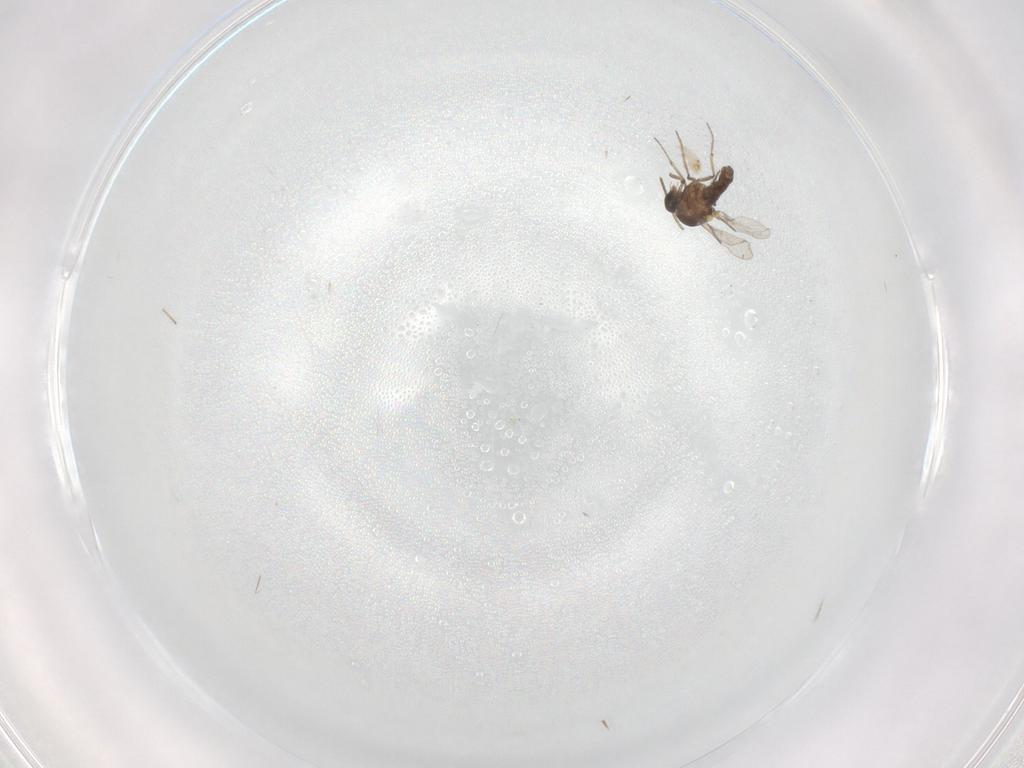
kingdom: Animalia
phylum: Arthropoda
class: Insecta
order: Diptera
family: Chironomidae
